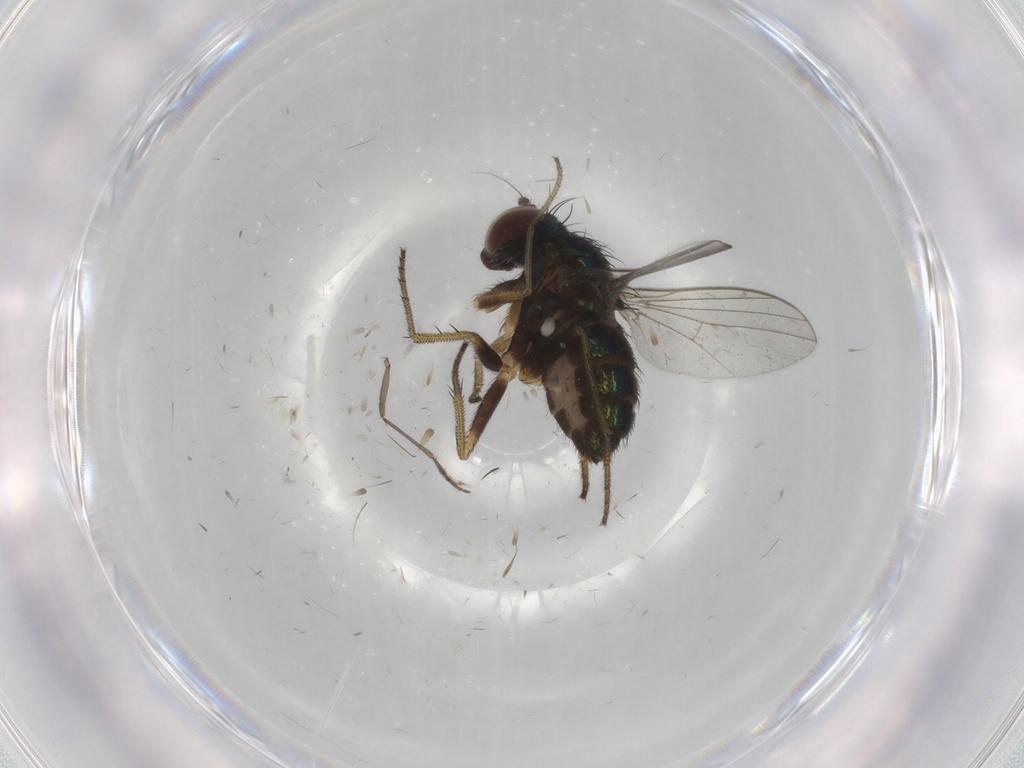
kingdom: Animalia
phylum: Arthropoda
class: Insecta
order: Diptera
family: Dolichopodidae
